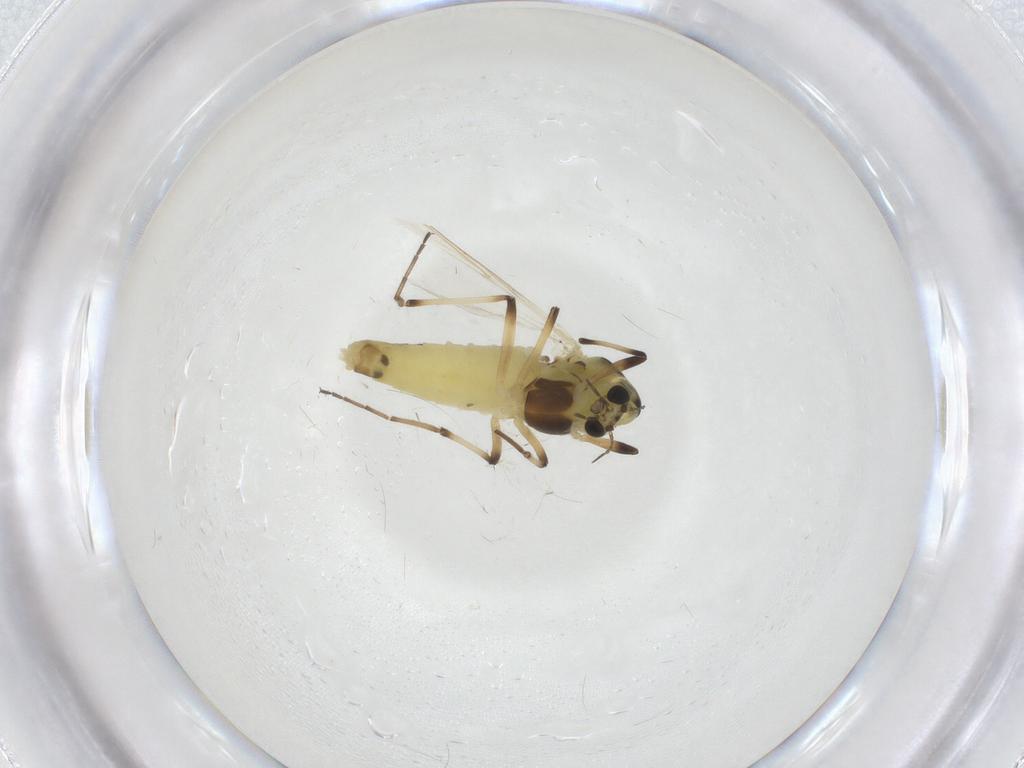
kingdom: Animalia
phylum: Arthropoda
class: Insecta
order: Diptera
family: Chironomidae
